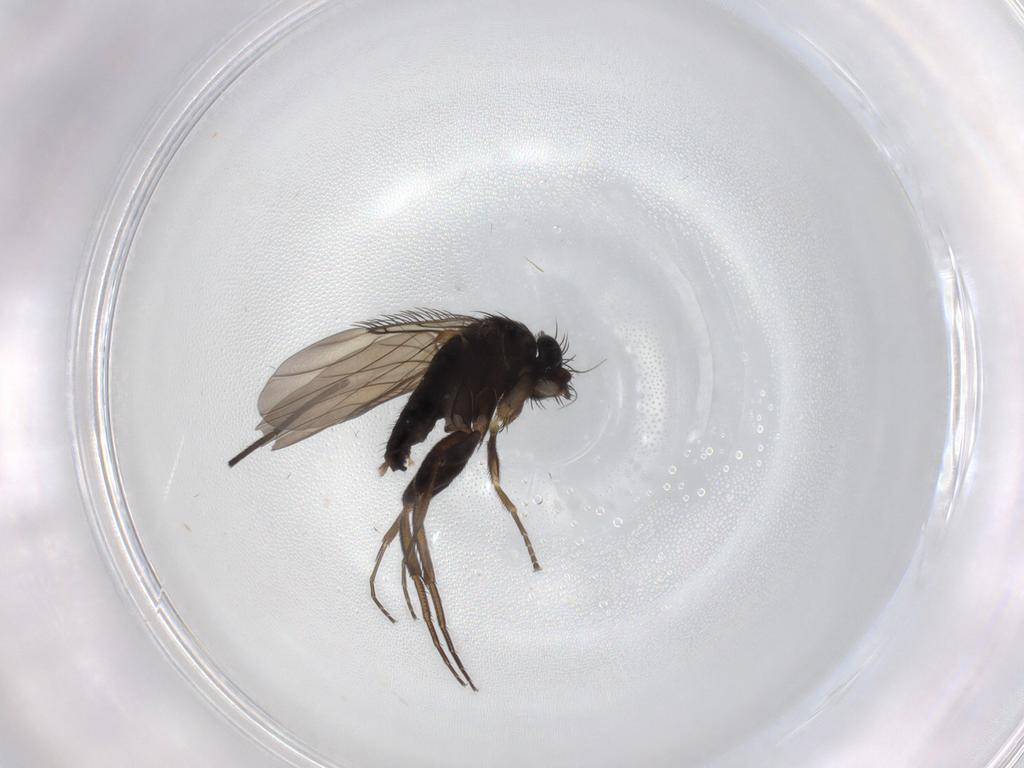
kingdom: Animalia
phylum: Arthropoda
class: Insecta
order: Diptera
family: Phoridae
